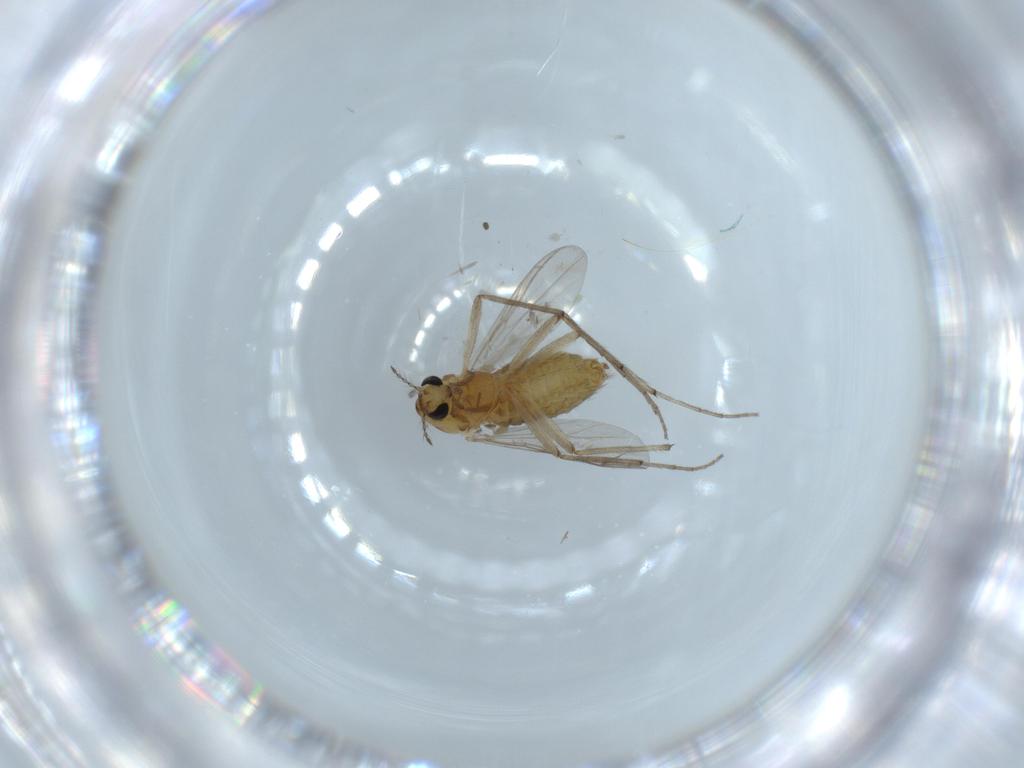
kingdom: Animalia
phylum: Arthropoda
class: Insecta
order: Diptera
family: Chironomidae
